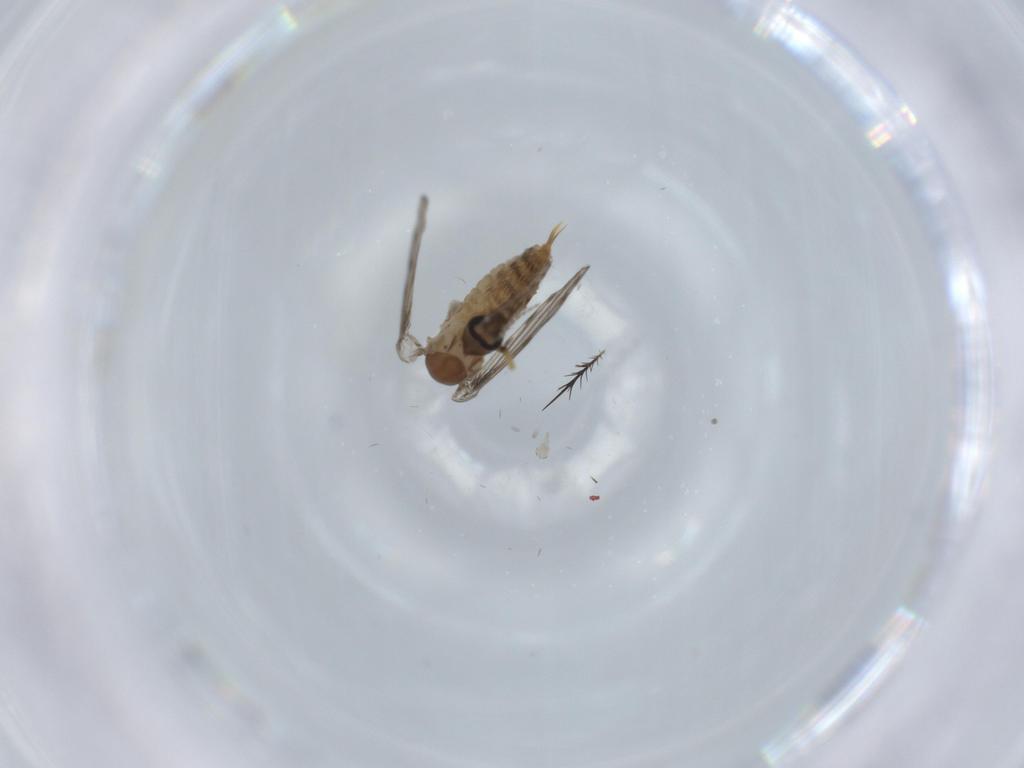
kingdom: Animalia
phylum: Arthropoda
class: Insecta
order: Diptera
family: Psychodidae
